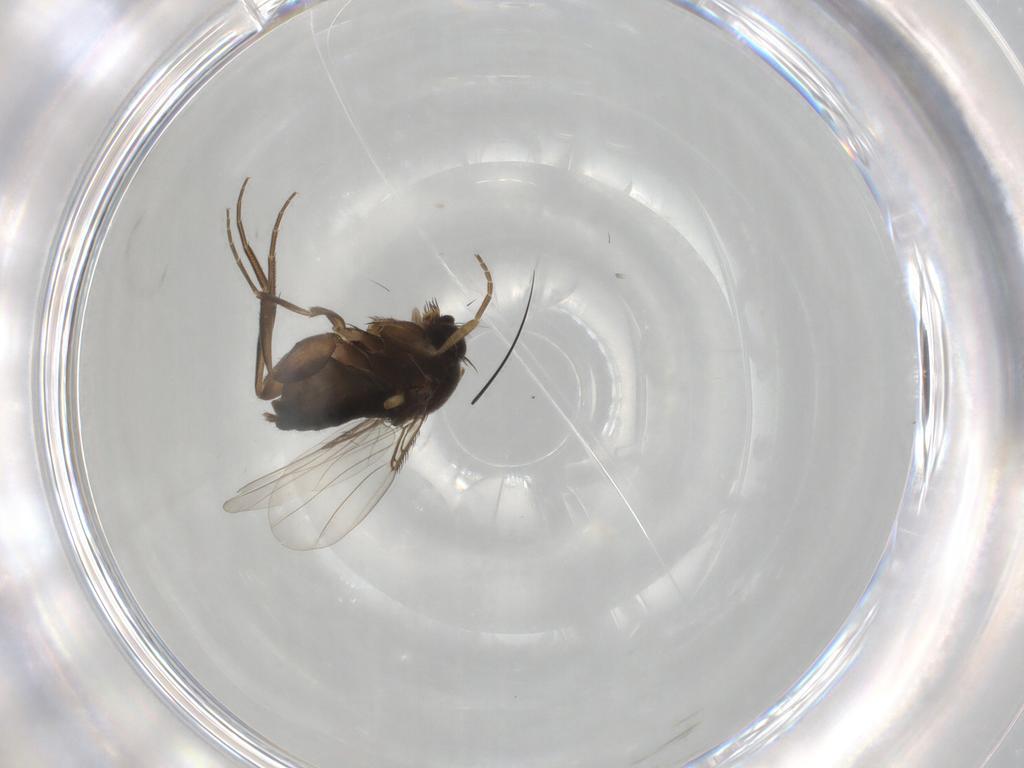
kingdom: Animalia
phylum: Arthropoda
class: Insecta
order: Diptera
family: Phoridae
